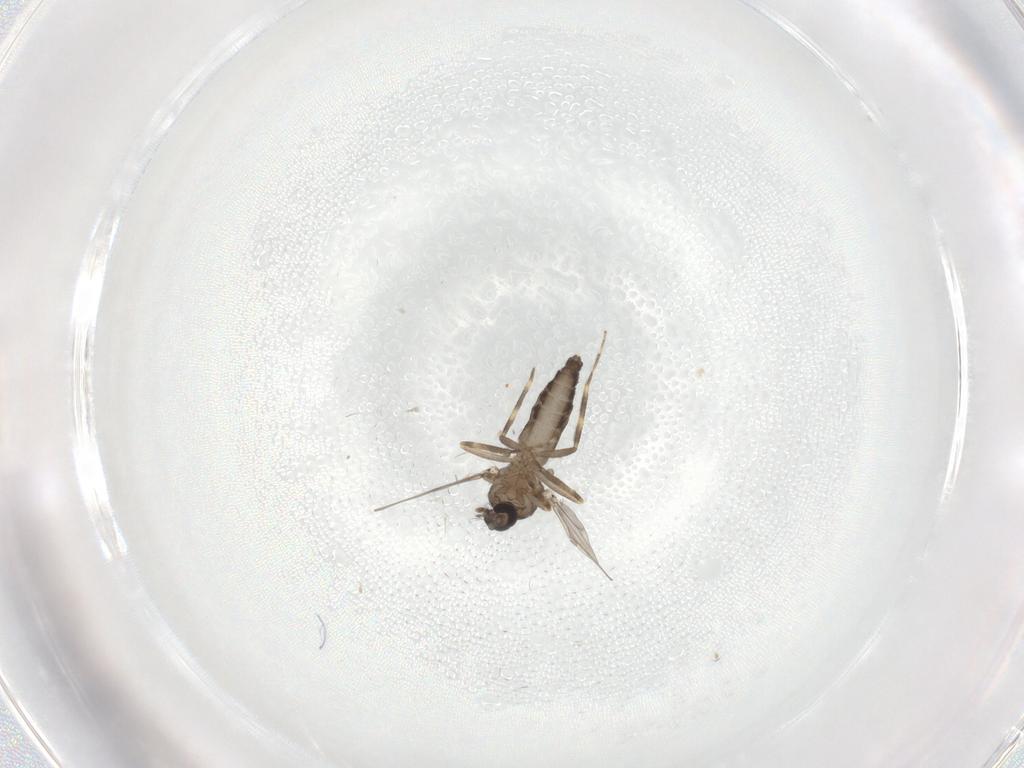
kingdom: Animalia
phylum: Arthropoda
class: Insecta
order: Diptera
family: Ceratopogonidae
